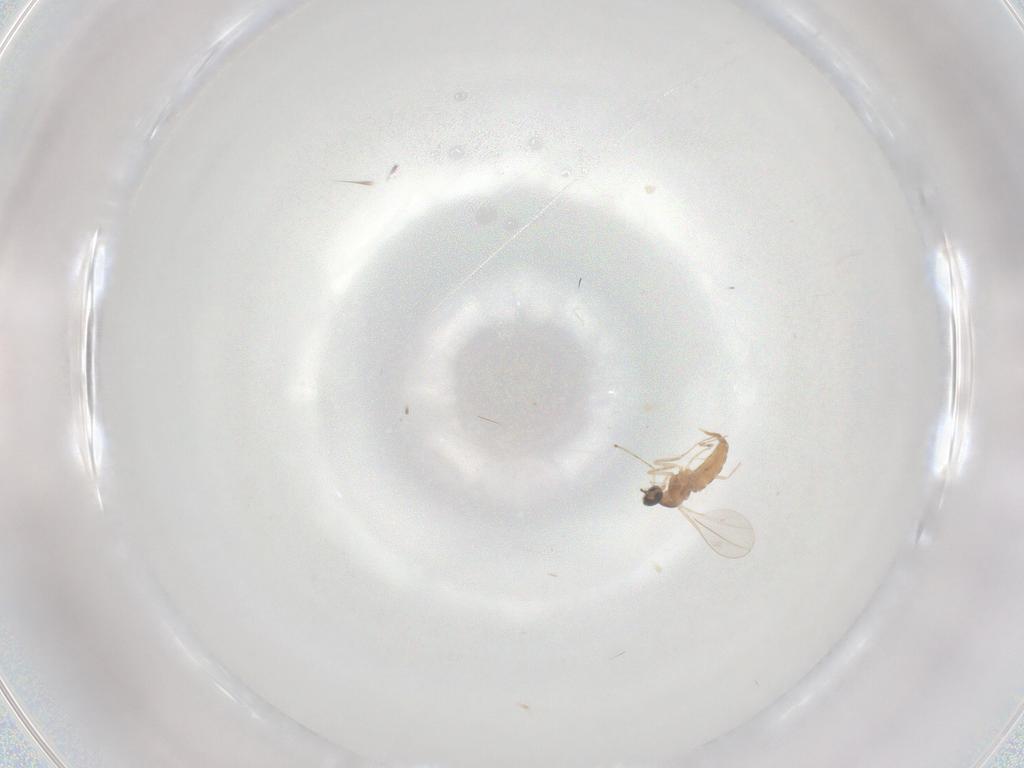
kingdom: Animalia
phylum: Arthropoda
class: Insecta
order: Diptera
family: Cecidomyiidae
